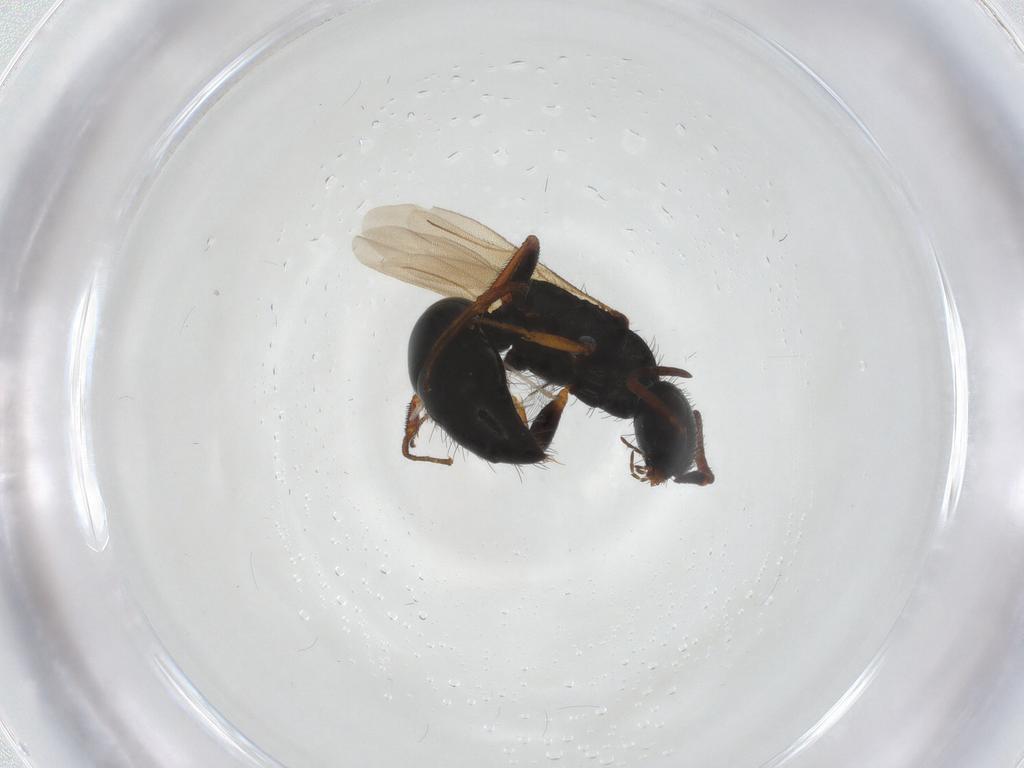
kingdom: Animalia
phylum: Arthropoda
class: Insecta
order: Hymenoptera
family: Bethylidae
